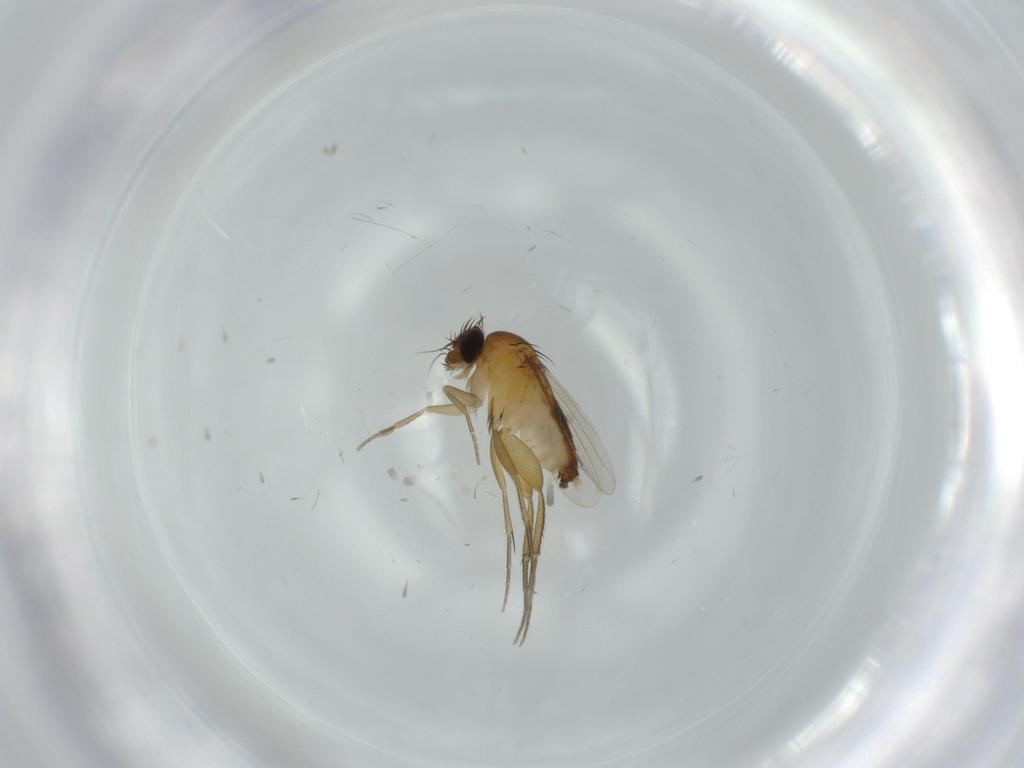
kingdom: Animalia
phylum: Arthropoda
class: Insecta
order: Diptera
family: Phoridae
